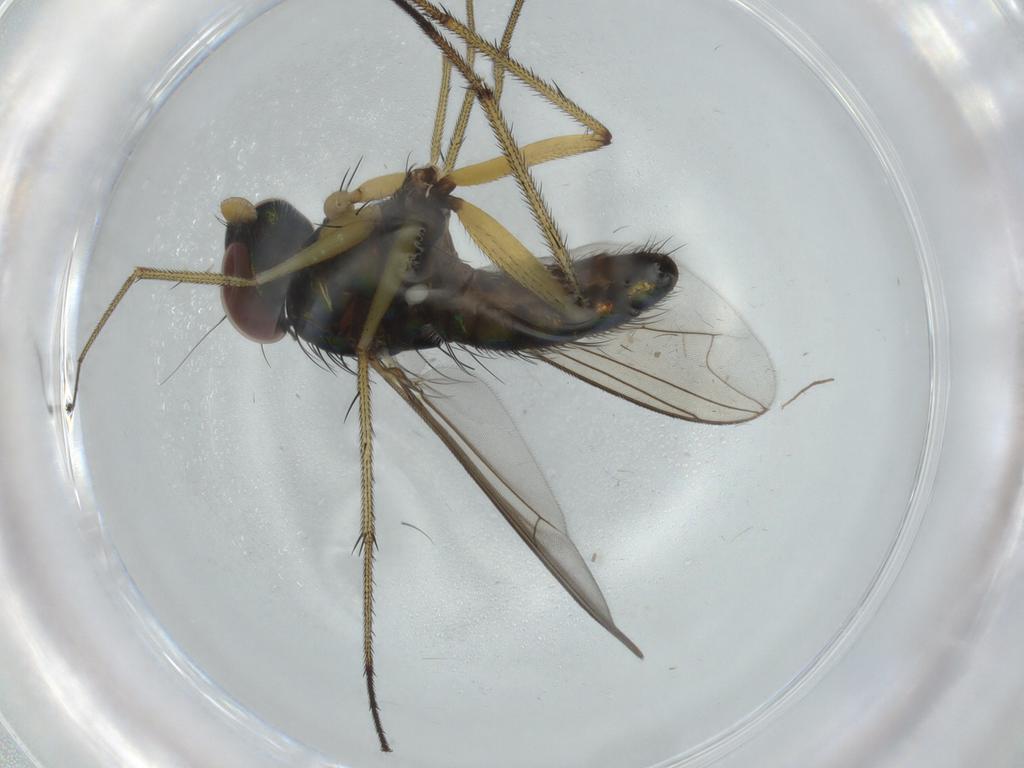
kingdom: Animalia
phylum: Arthropoda
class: Insecta
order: Diptera
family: Dolichopodidae
